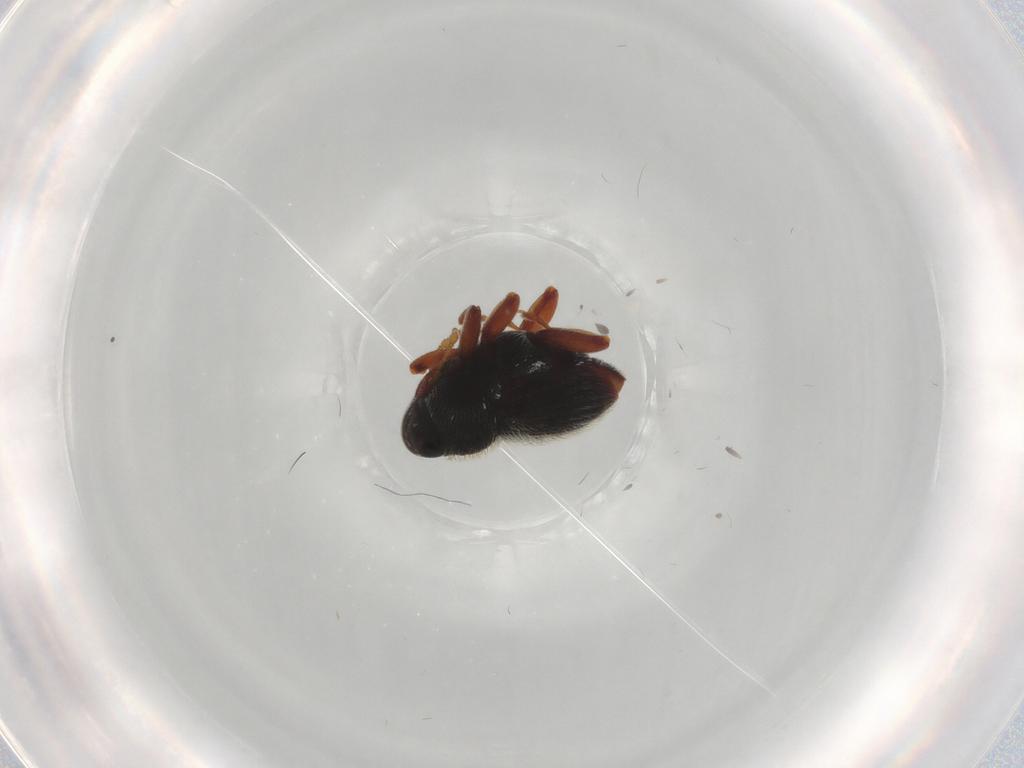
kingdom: Animalia
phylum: Arthropoda
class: Insecta
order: Coleoptera
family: Curculionidae
